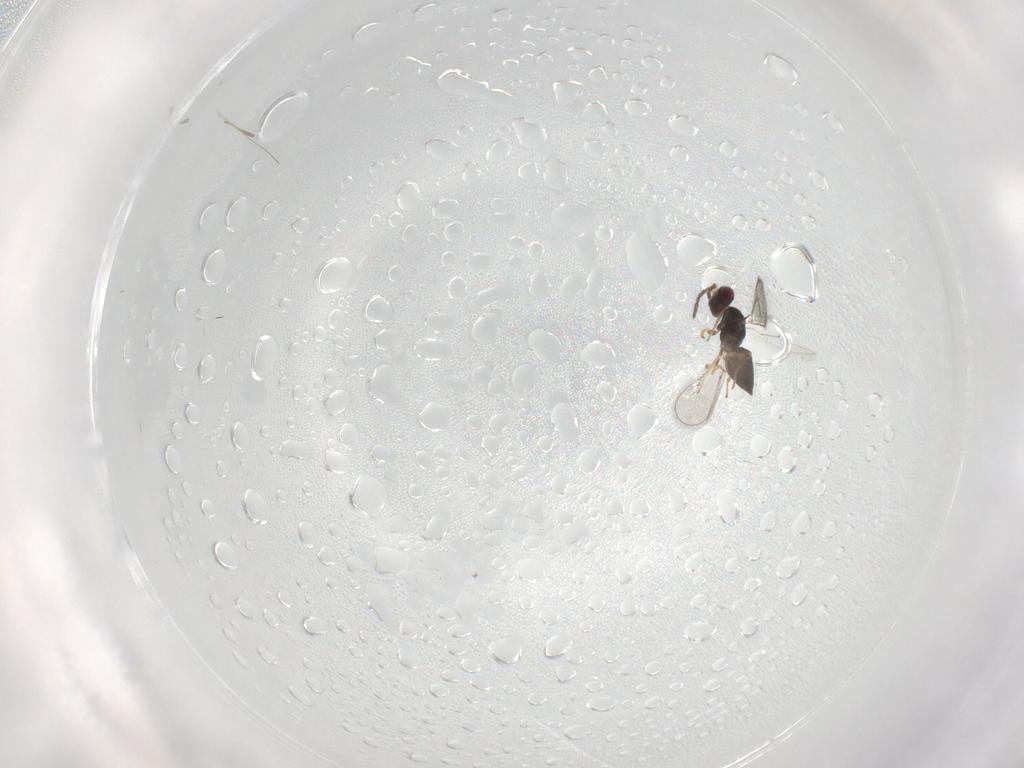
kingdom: Animalia
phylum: Arthropoda
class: Insecta
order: Hymenoptera
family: Eulophidae
